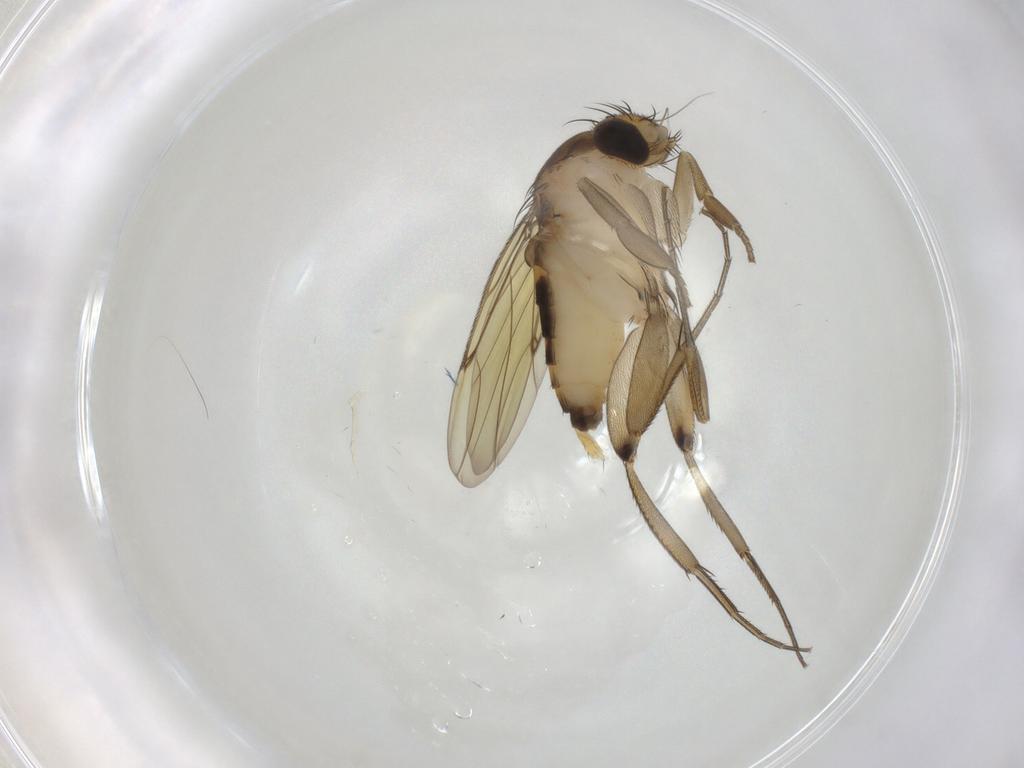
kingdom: Animalia
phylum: Arthropoda
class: Insecta
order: Diptera
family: Phoridae
